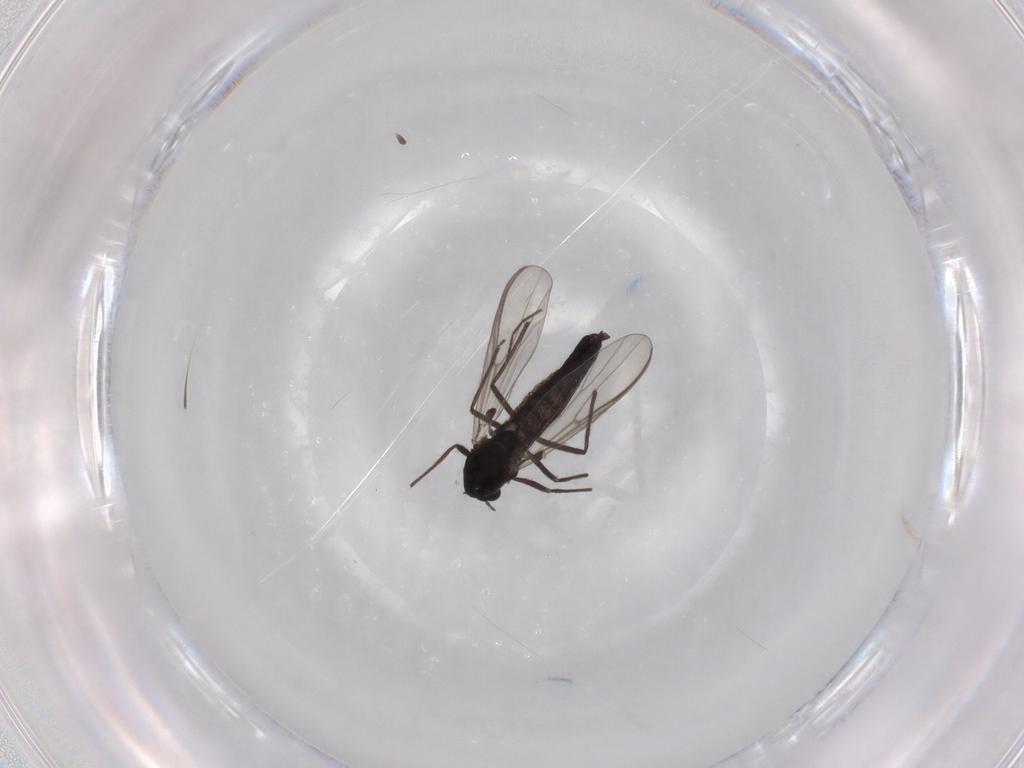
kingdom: Animalia
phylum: Arthropoda
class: Insecta
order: Diptera
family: Chironomidae
